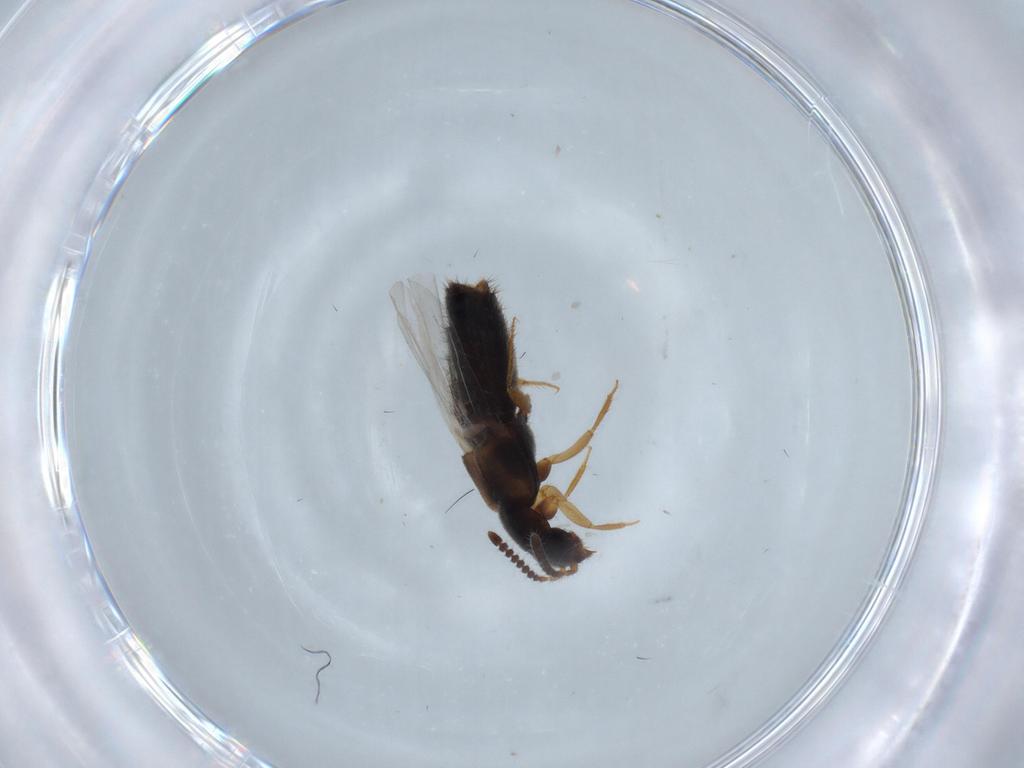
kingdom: Animalia
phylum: Arthropoda
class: Insecta
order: Coleoptera
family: Staphylinidae
